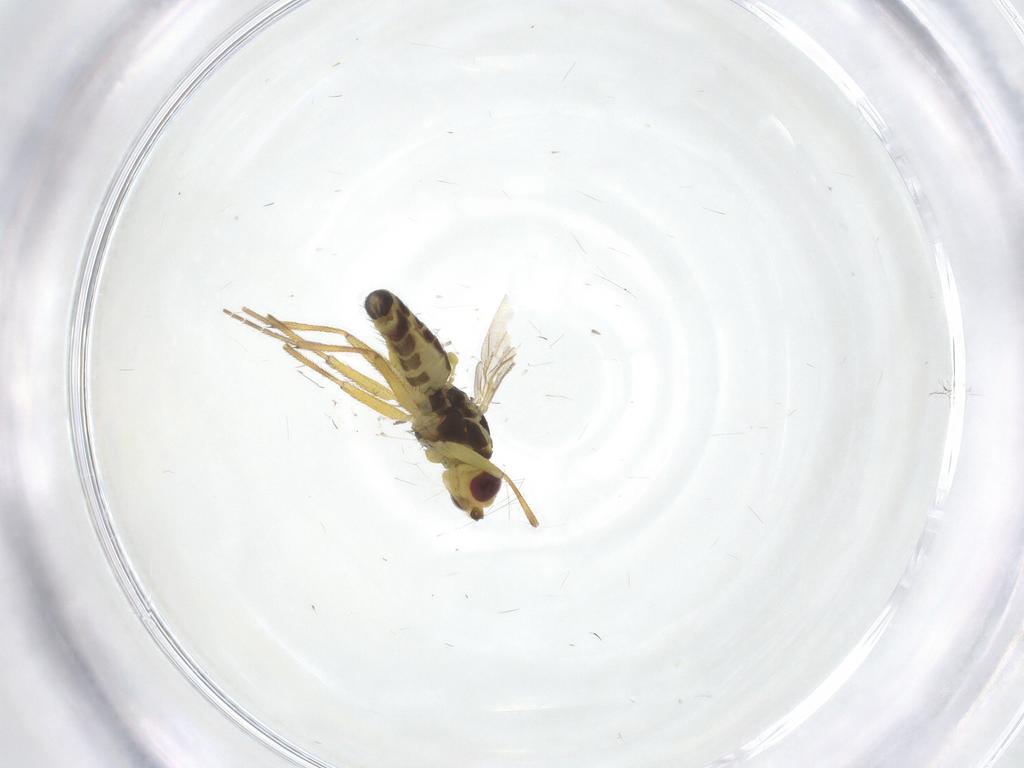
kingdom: Animalia
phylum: Arthropoda
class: Insecta
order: Diptera
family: Agromyzidae
